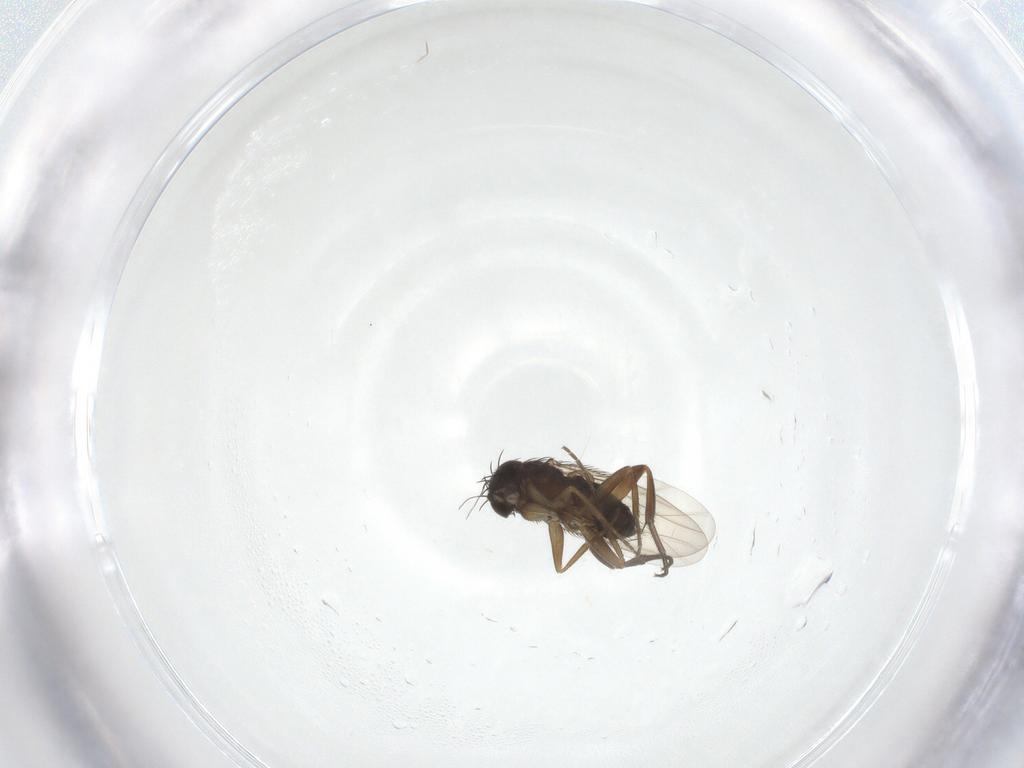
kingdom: Animalia
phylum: Arthropoda
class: Insecta
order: Diptera
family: Phoridae
